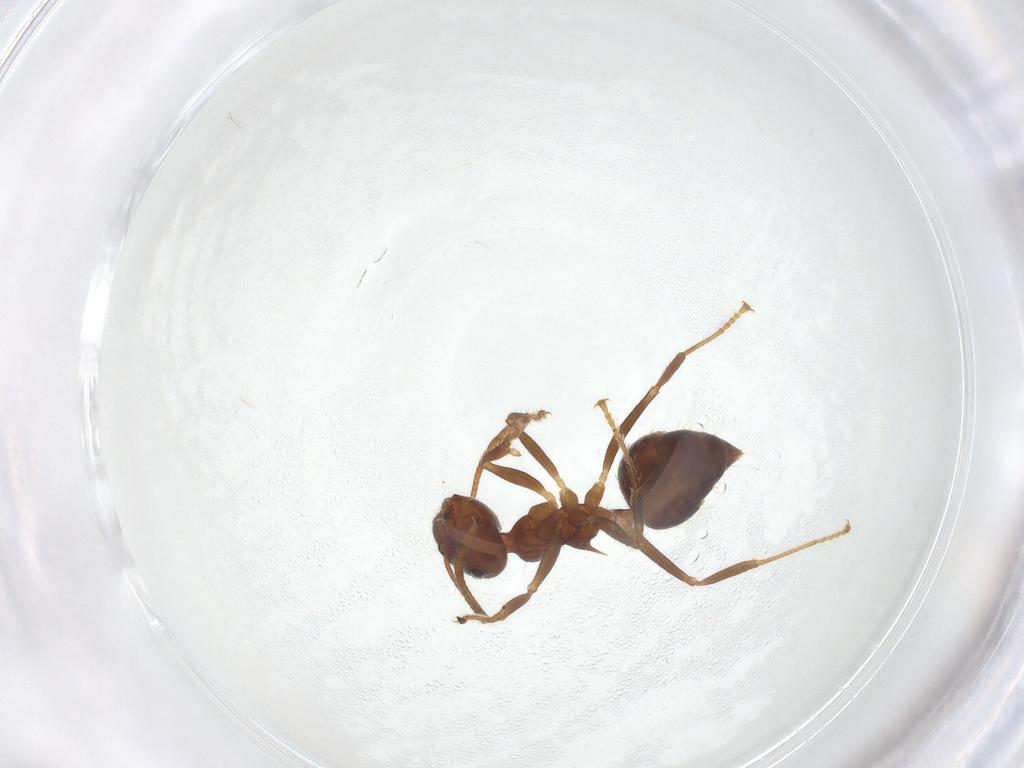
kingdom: Animalia
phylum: Arthropoda
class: Insecta
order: Hymenoptera
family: Formicidae
